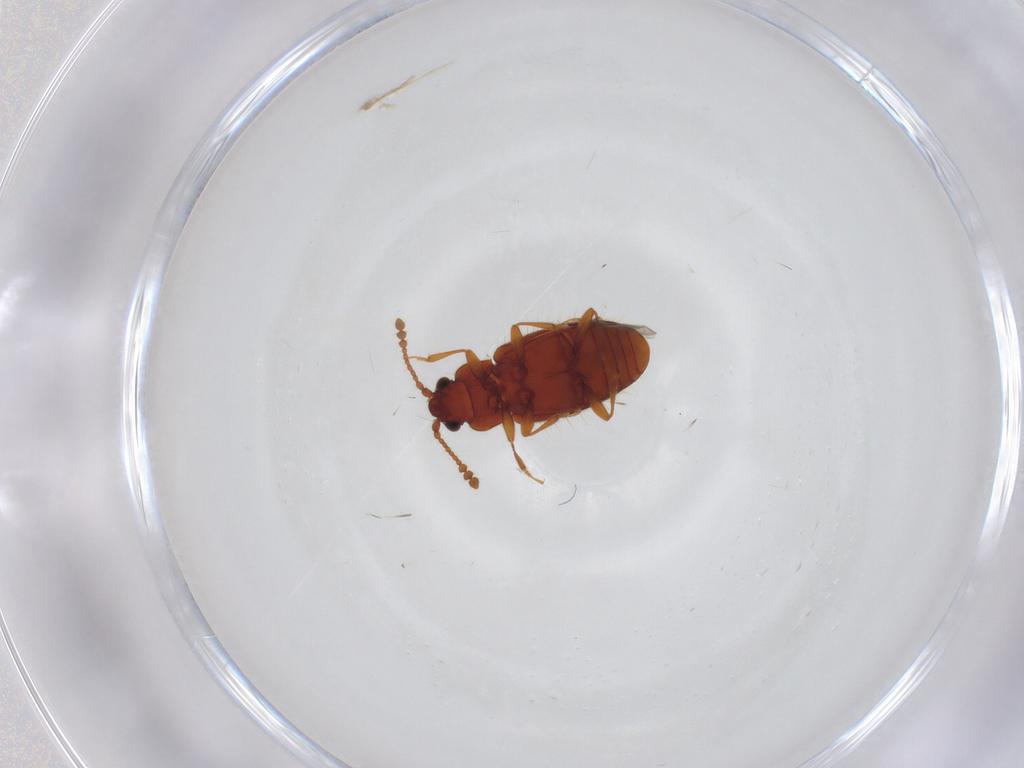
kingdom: Animalia
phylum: Arthropoda
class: Insecta
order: Coleoptera
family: Cryptophagidae
